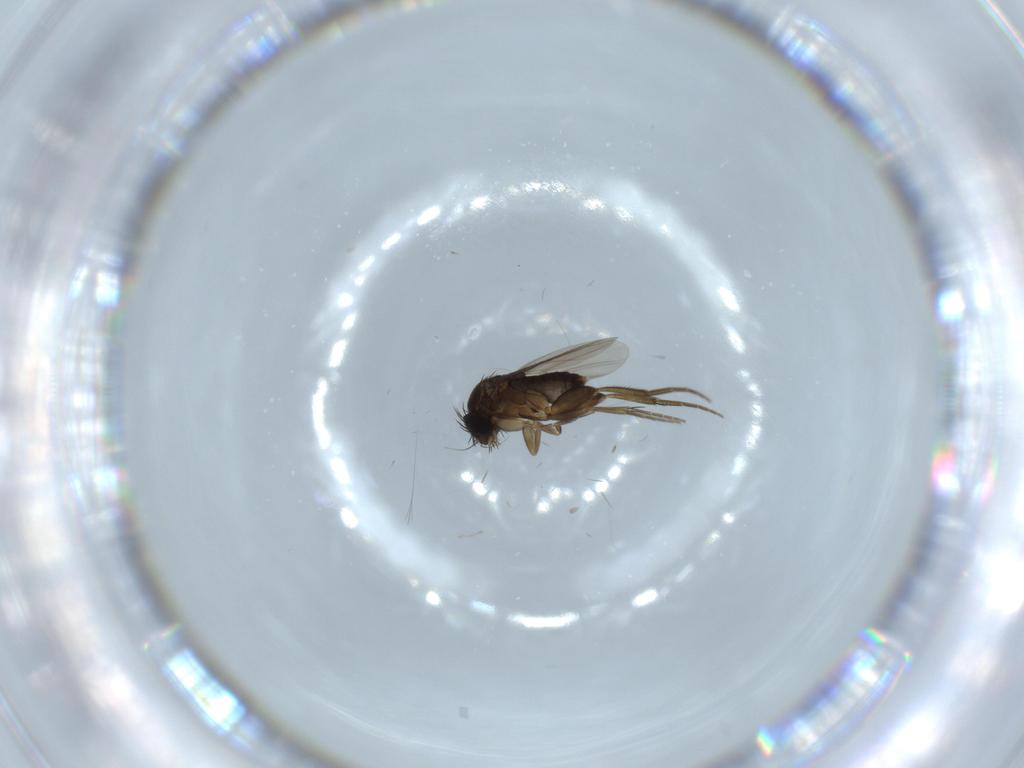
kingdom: Animalia
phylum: Arthropoda
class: Insecta
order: Diptera
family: Phoridae
